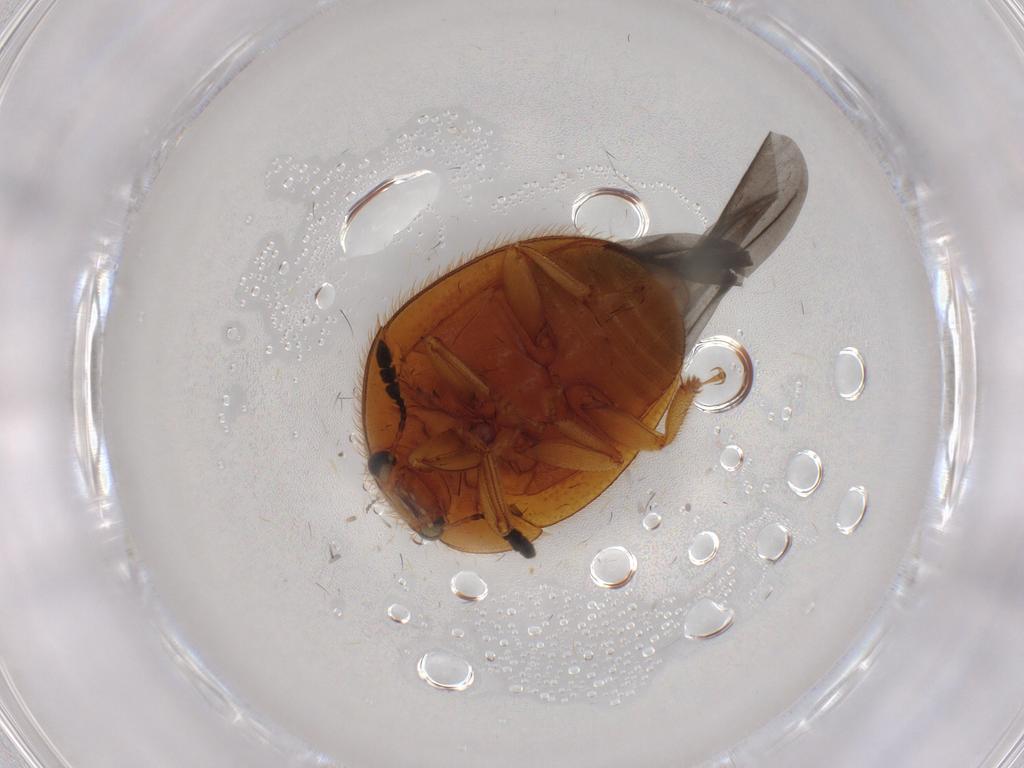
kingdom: Animalia
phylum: Arthropoda
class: Insecta
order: Coleoptera
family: Nitidulidae
